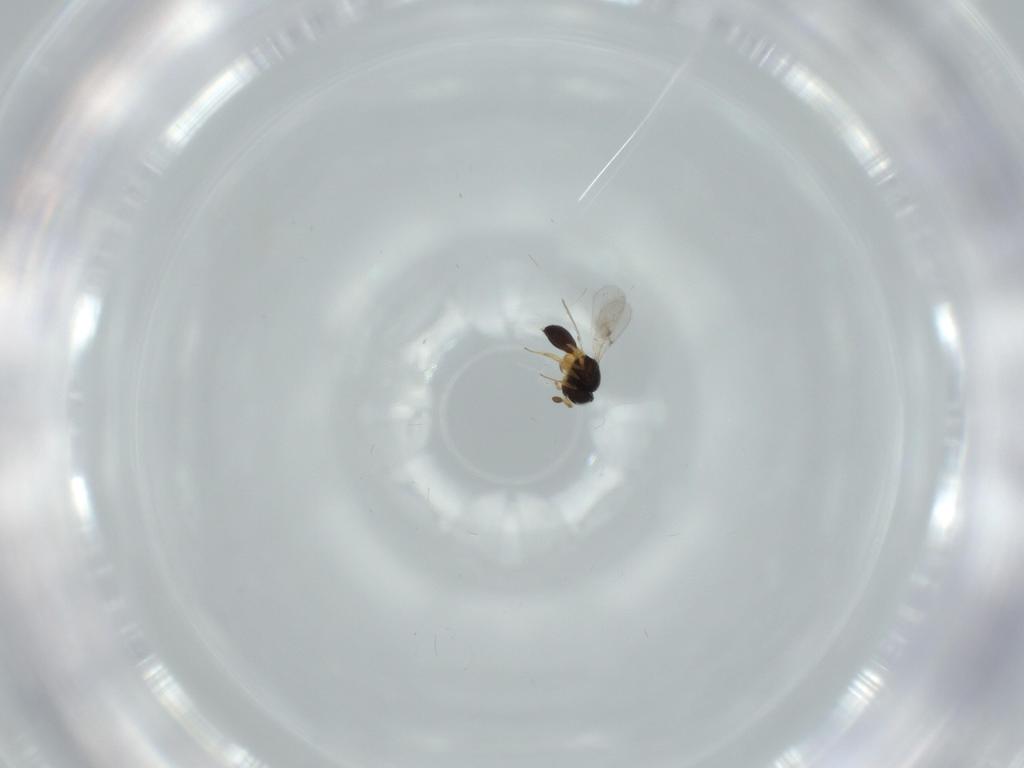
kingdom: Animalia
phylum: Arthropoda
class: Insecta
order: Hymenoptera
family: Scelionidae
